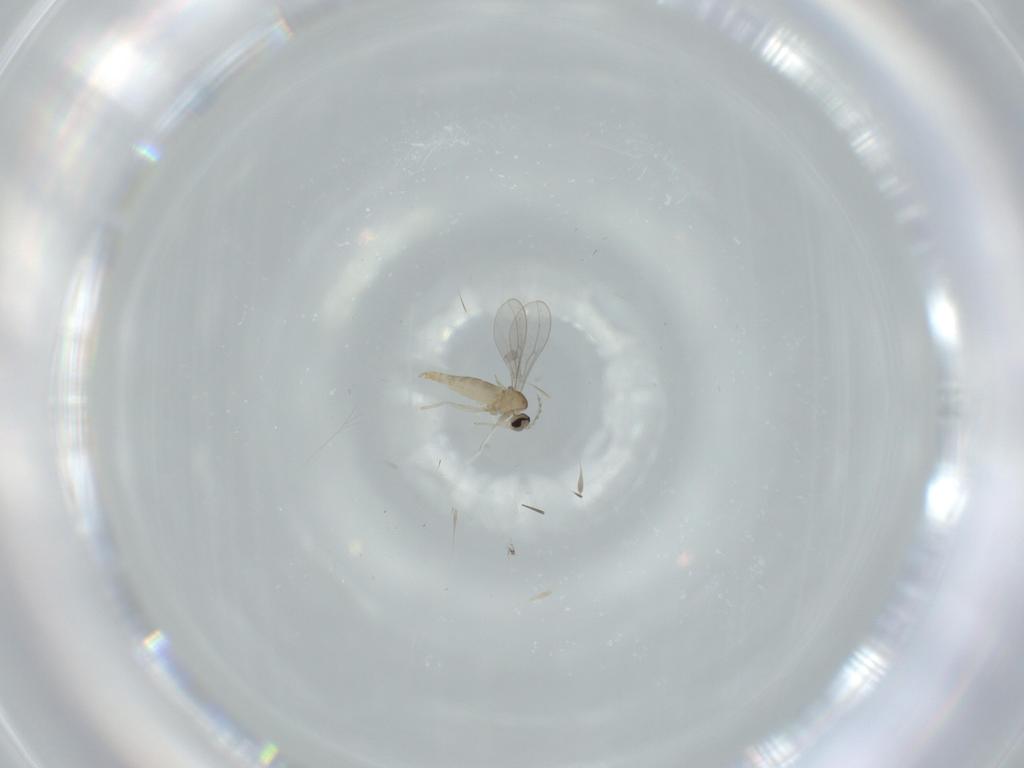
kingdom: Animalia
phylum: Arthropoda
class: Insecta
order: Diptera
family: Cecidomyiidae
